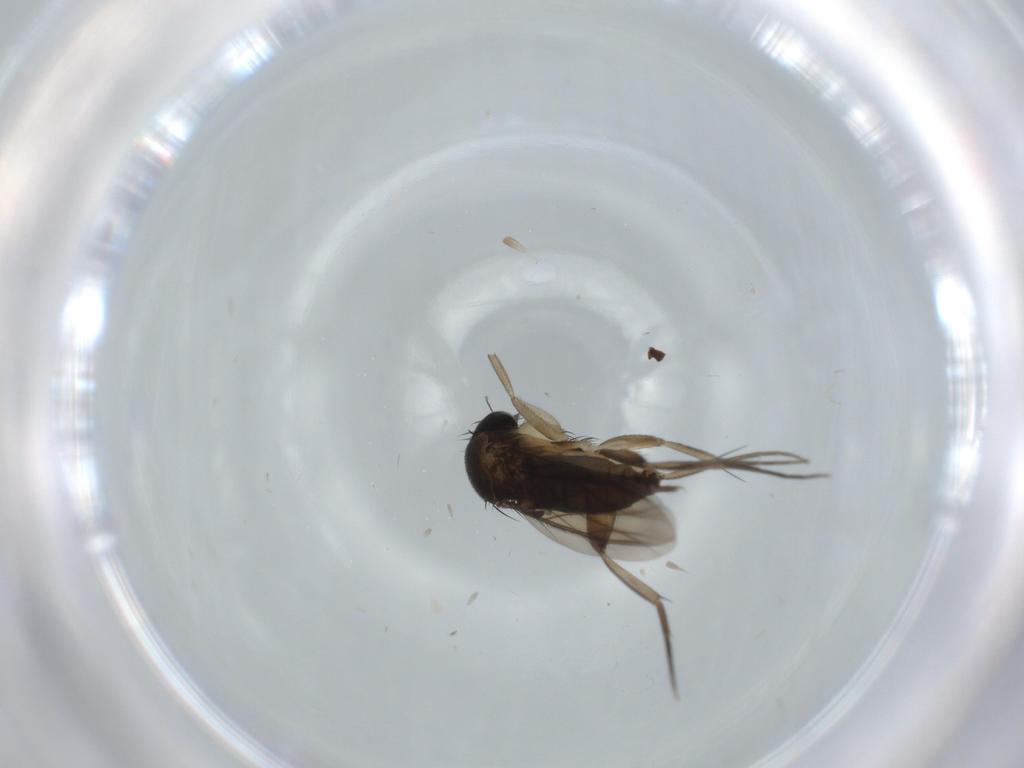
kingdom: Animalia
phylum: Arthropoda
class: Insecta
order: Diptera
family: Phoridae
